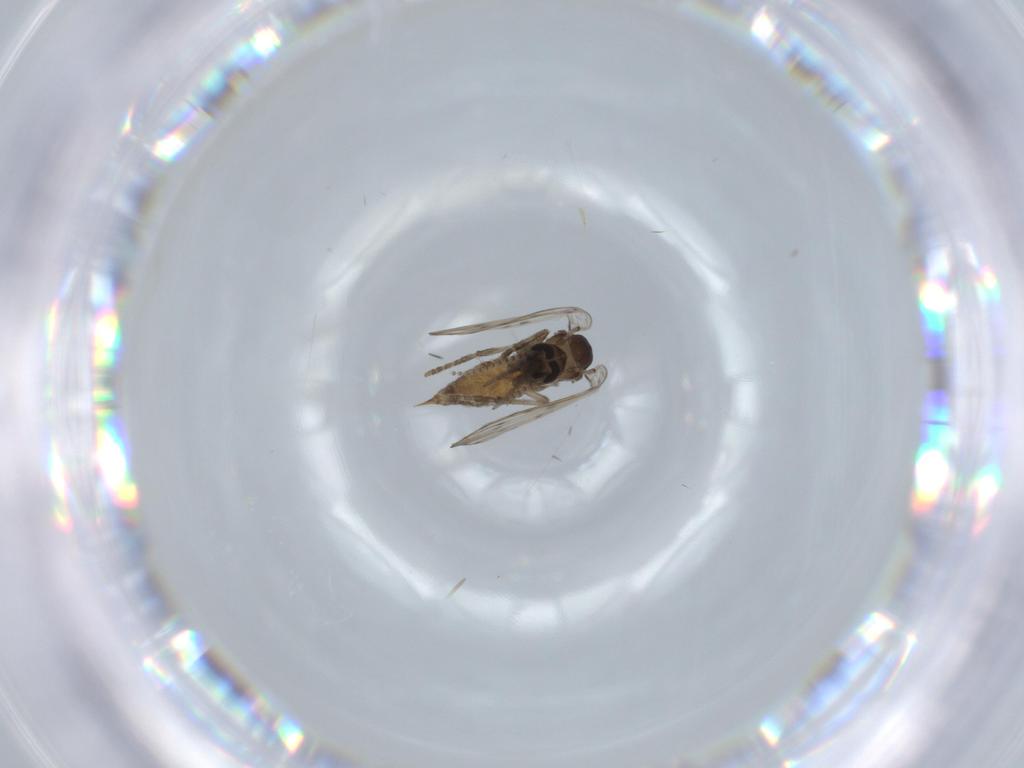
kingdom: Animalia
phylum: Arthropoda
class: Insecta
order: Diptera
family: Psychodidae
